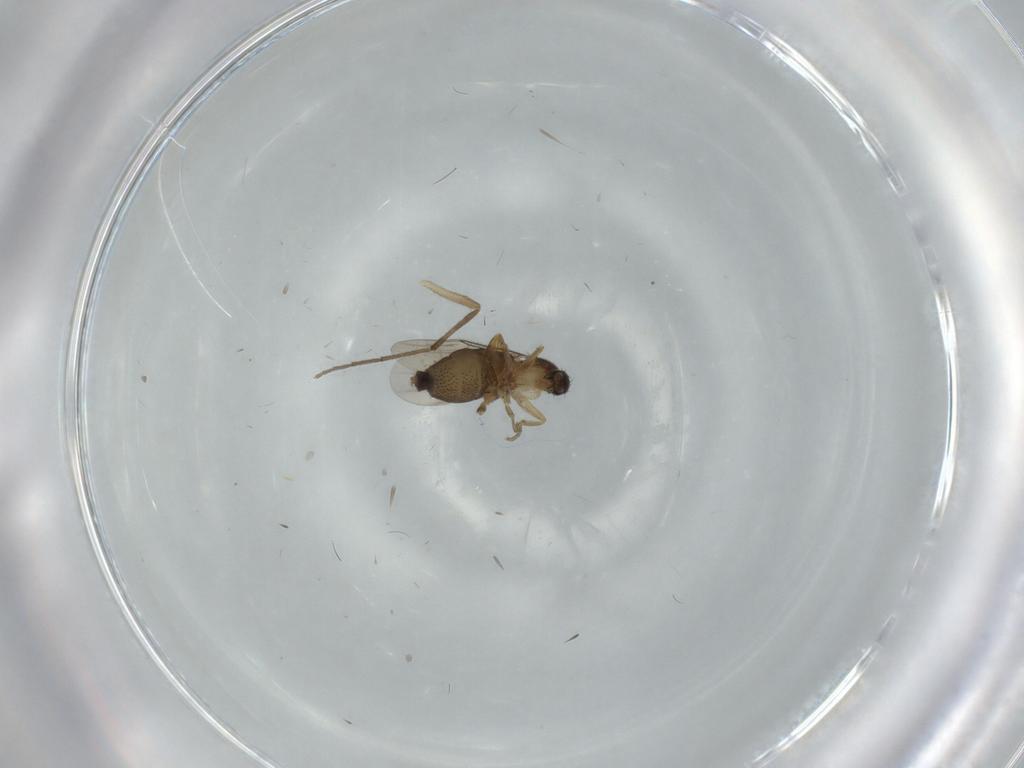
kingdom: Animalia
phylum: Arthropoda
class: Insecta
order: Diptera
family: Phoridae
